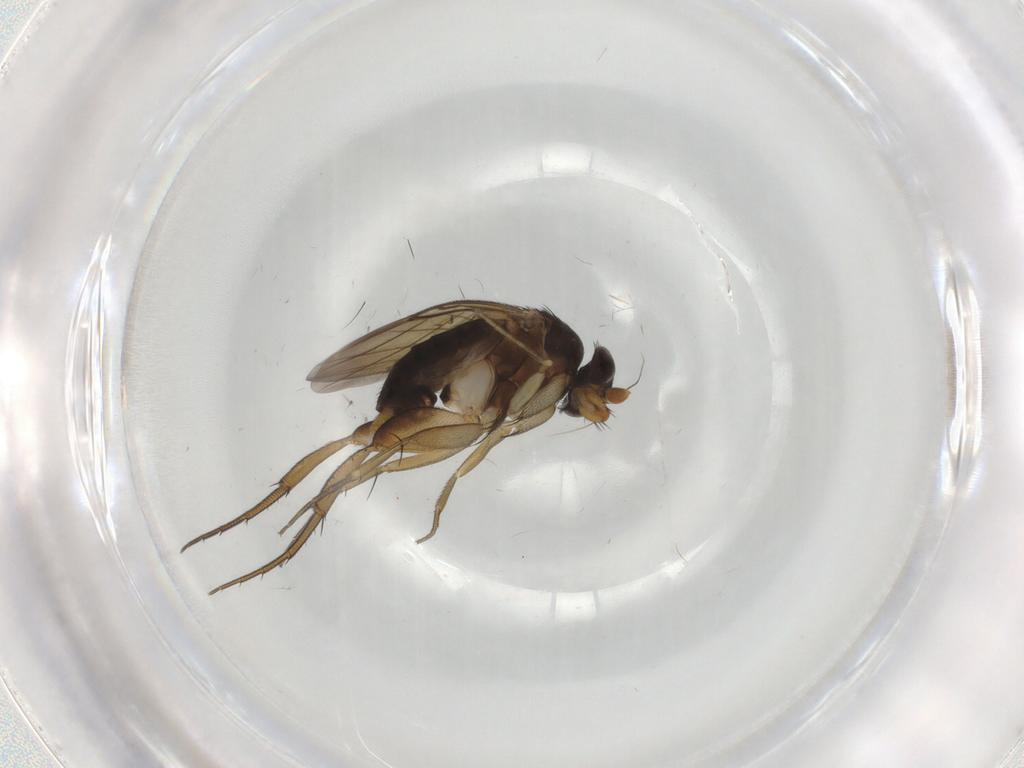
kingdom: Animalia
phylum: Arthropoda
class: Insecta
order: Diptera
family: Phoridae
